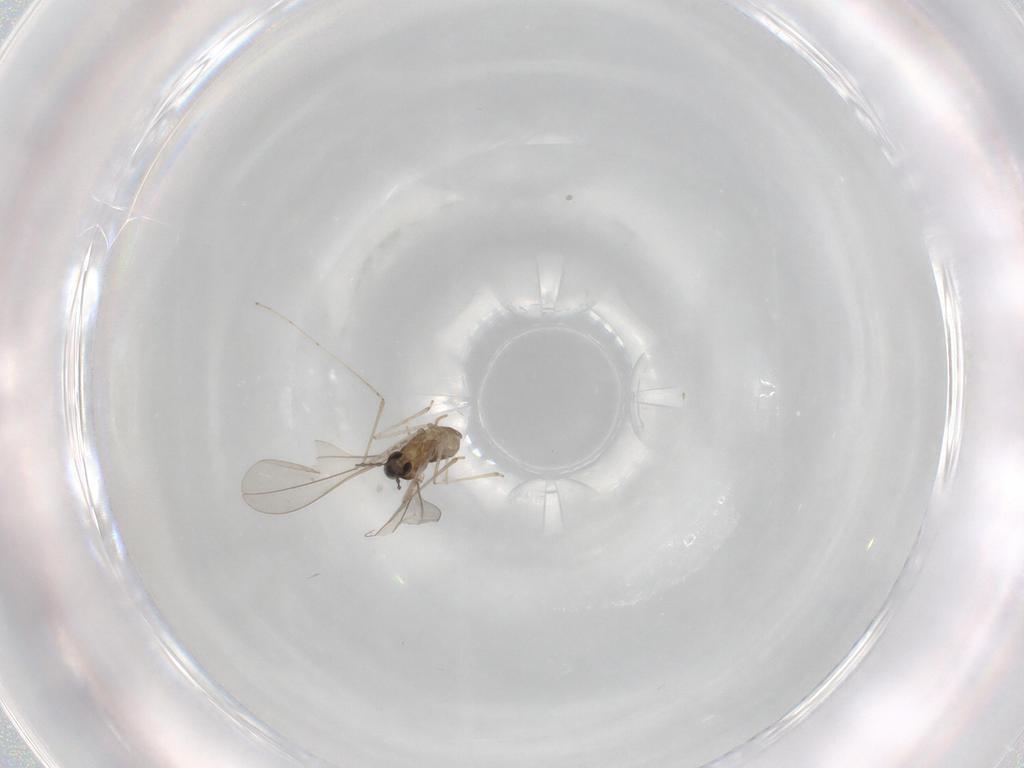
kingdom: Animalia
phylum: Arthropoda
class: Insecta
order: Diptera
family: Cecidomyiidae
